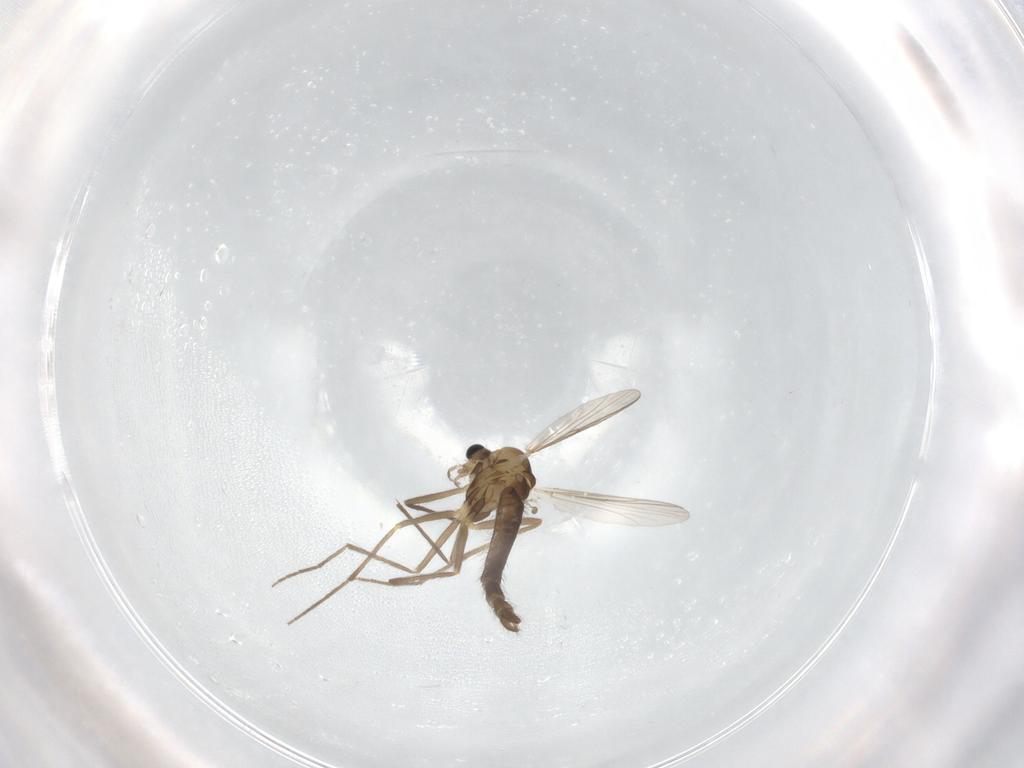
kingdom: Animalia
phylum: Arthropoda
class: Insecta
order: Diptera
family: Chironomidae
